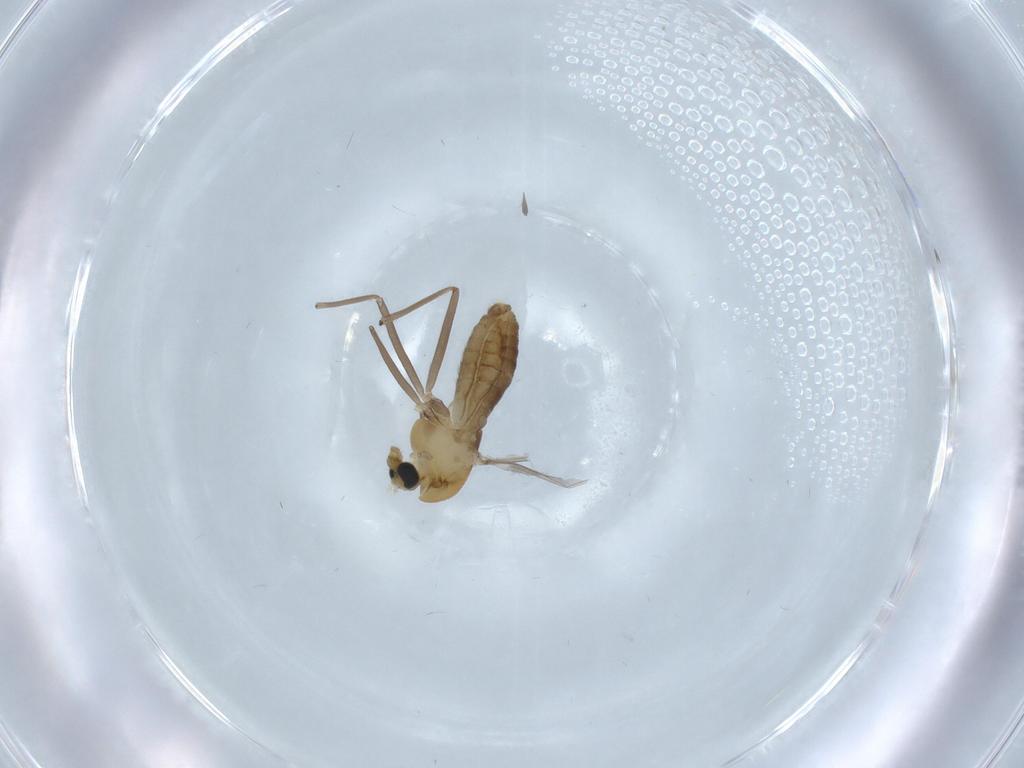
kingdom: Animalia
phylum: Arthropoda
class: Insecta
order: Diptera
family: Chironomidae
